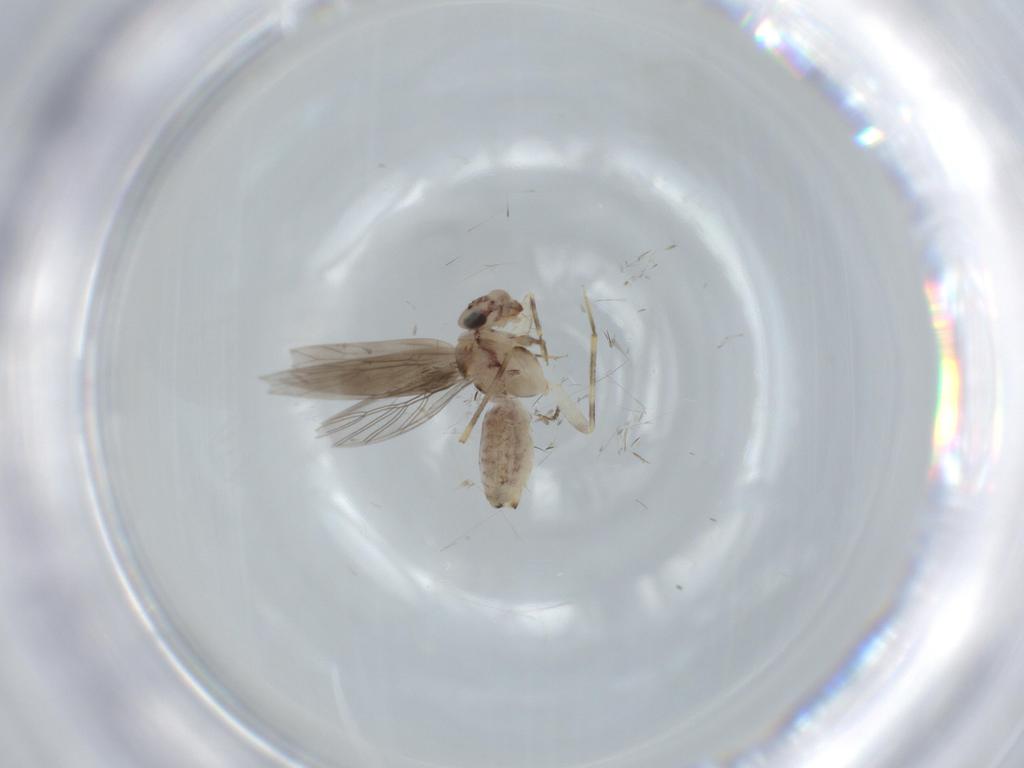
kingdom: Animalia
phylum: Arthropoda
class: Insecta
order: Psocodea
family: Lepidopsocidae
